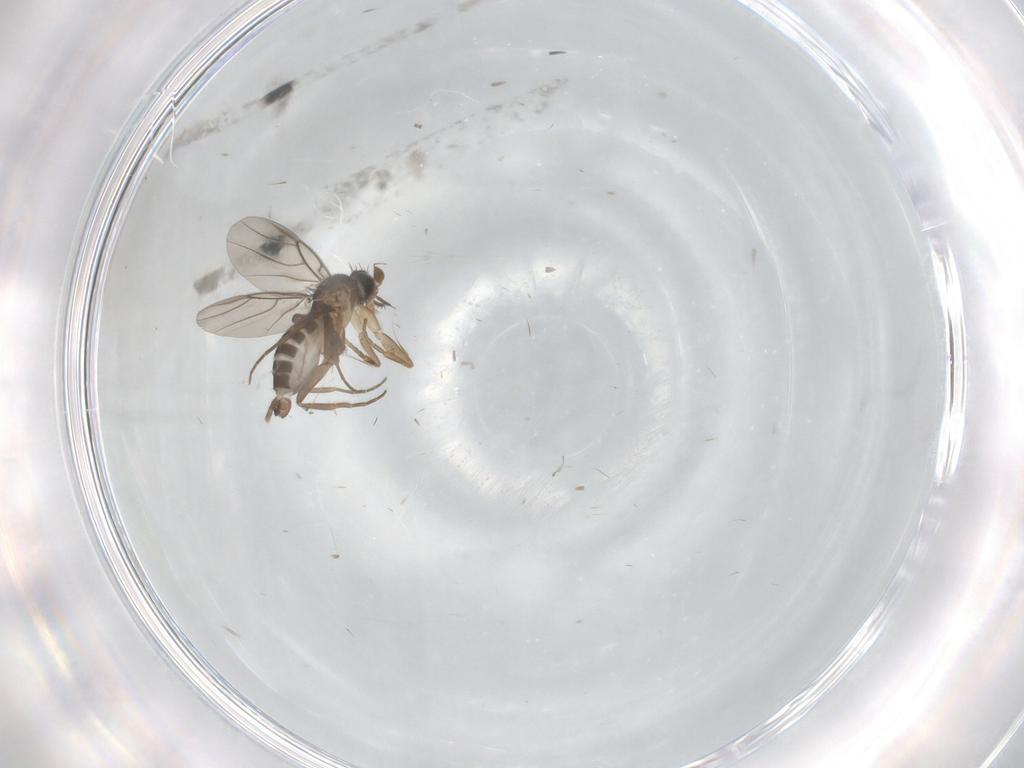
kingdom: Animalia
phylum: Arthropoda
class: Insecta
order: Diptera
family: Phoridae
